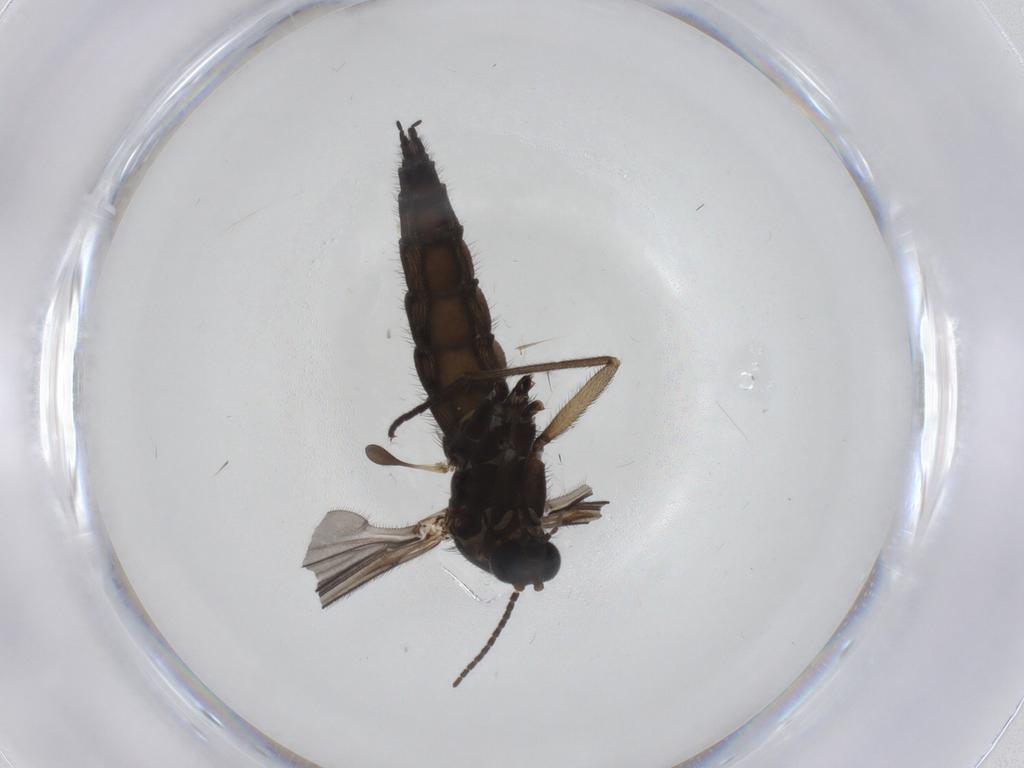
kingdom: Animalia
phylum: Arthropoda
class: Insecta
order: Diptera
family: Sciaridae
